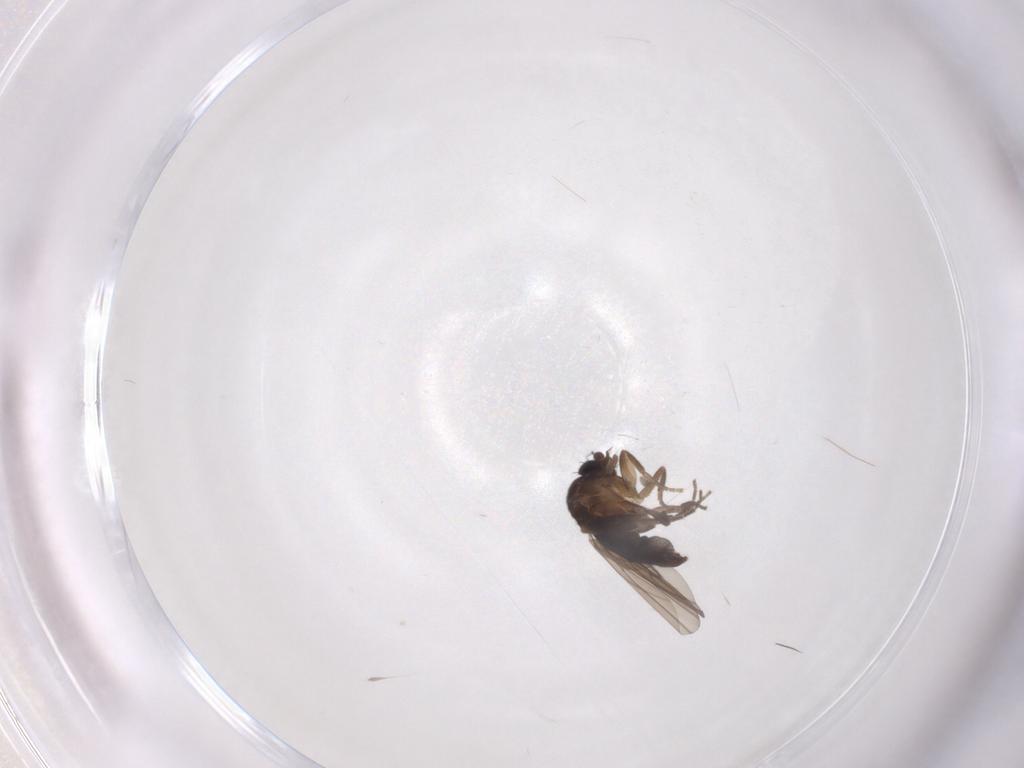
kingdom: Animalia
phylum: Arthropoda
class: Insecta
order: Diptera
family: Phoridae
